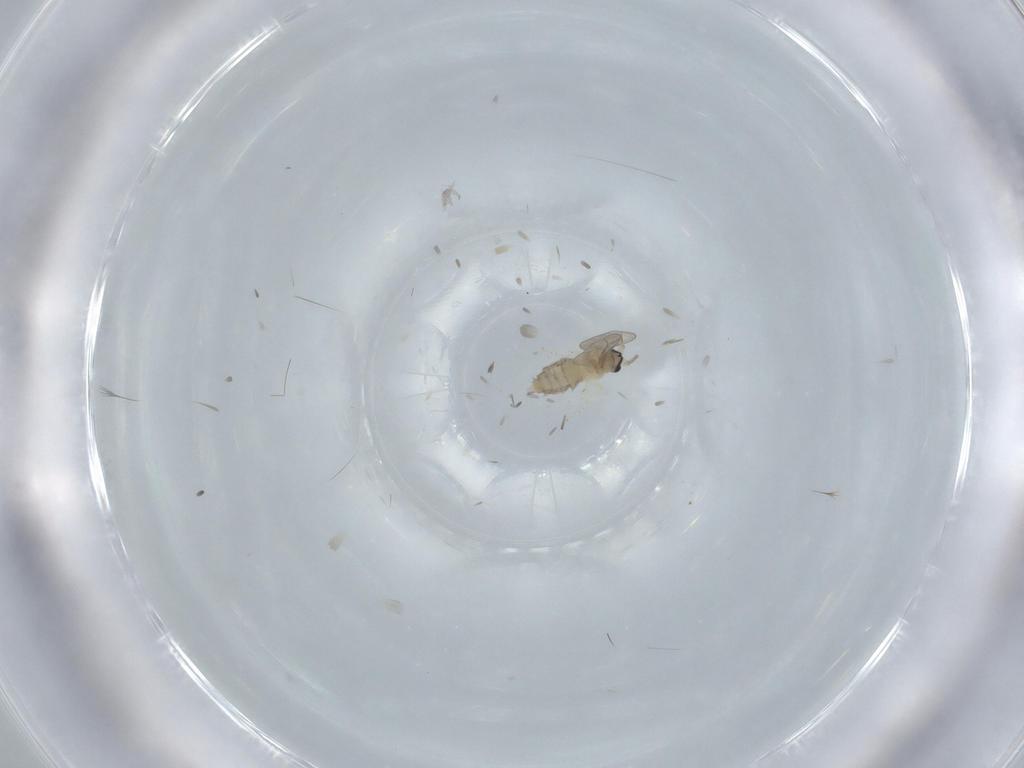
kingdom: Animalia
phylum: Arthropoda
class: Insecta
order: Diptera
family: Cecidomyiidae
